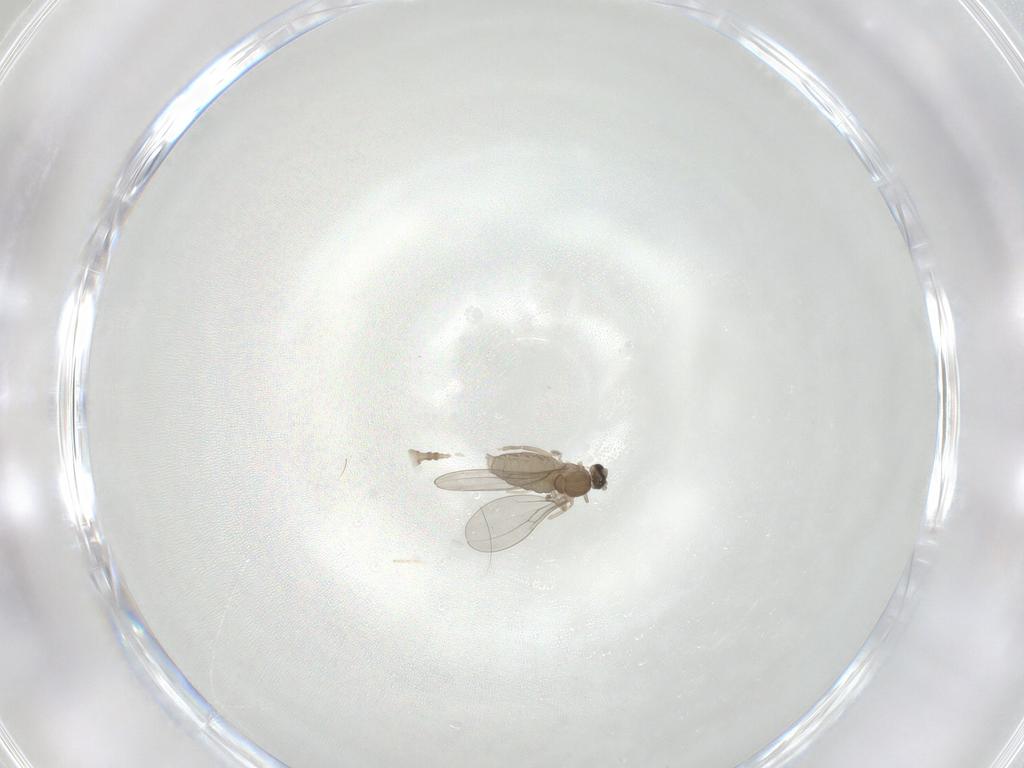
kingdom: Animalia
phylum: Arthropoda
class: Insecta
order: Diptera
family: Cecidomyiidae
